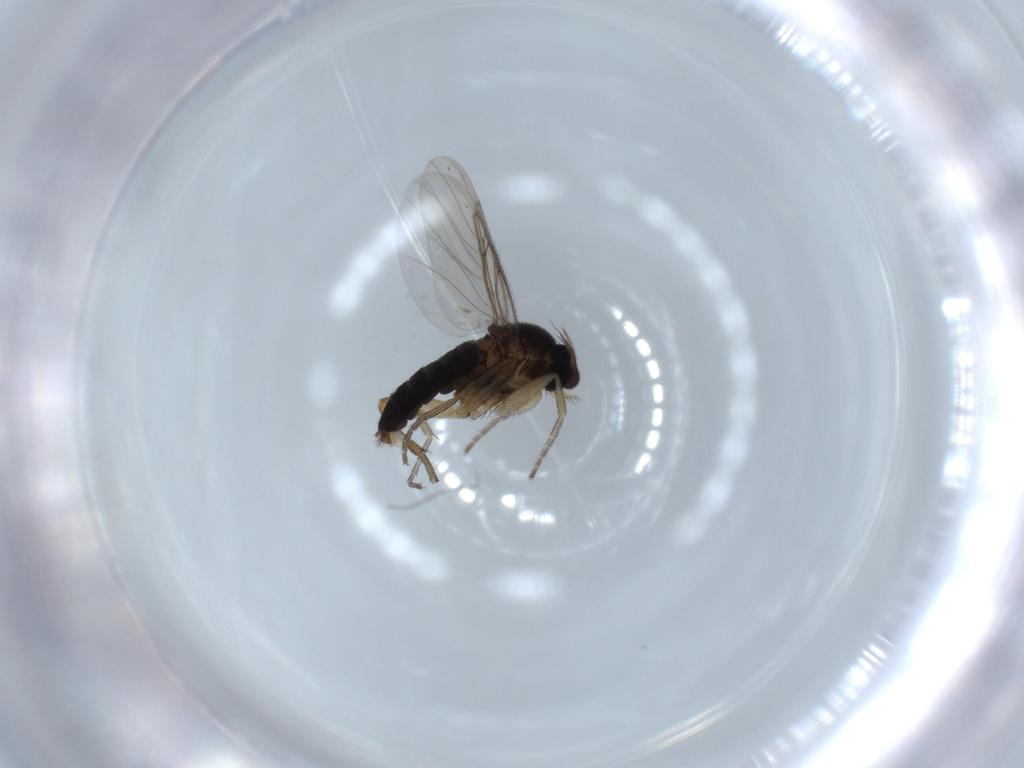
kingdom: Animalia
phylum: Arthropoda
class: Insecta
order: Diptera
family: Phoridae
